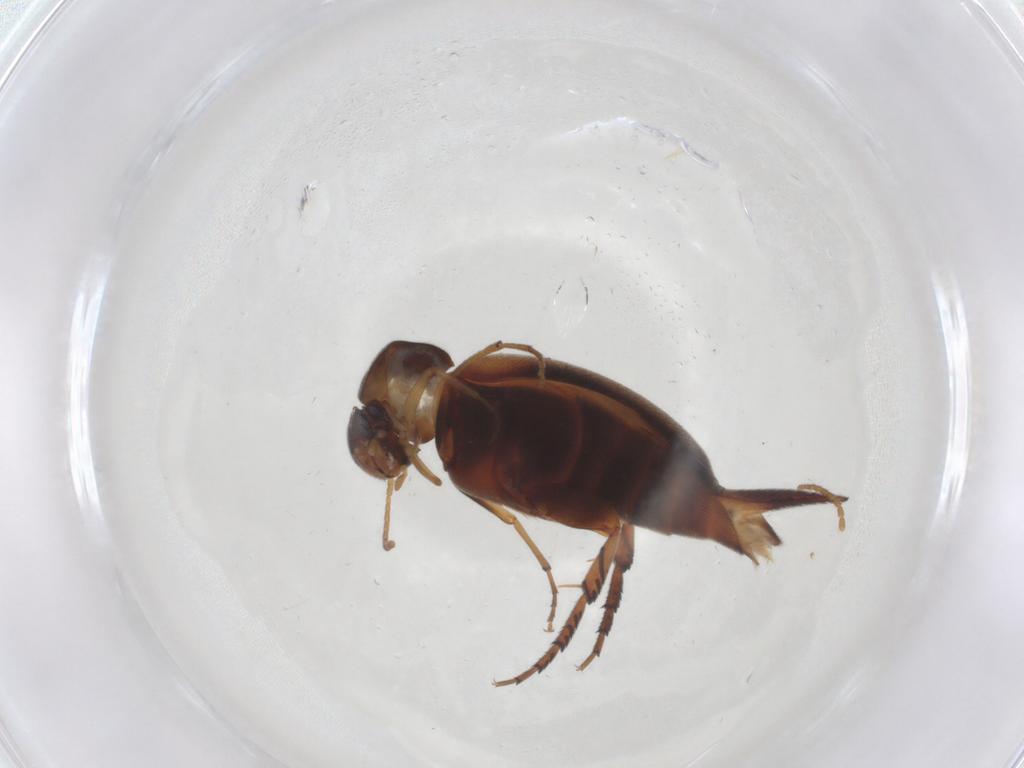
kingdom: Animalia
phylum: Arthropoda
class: Insecta
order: Coleoptera
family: Mordellidae
